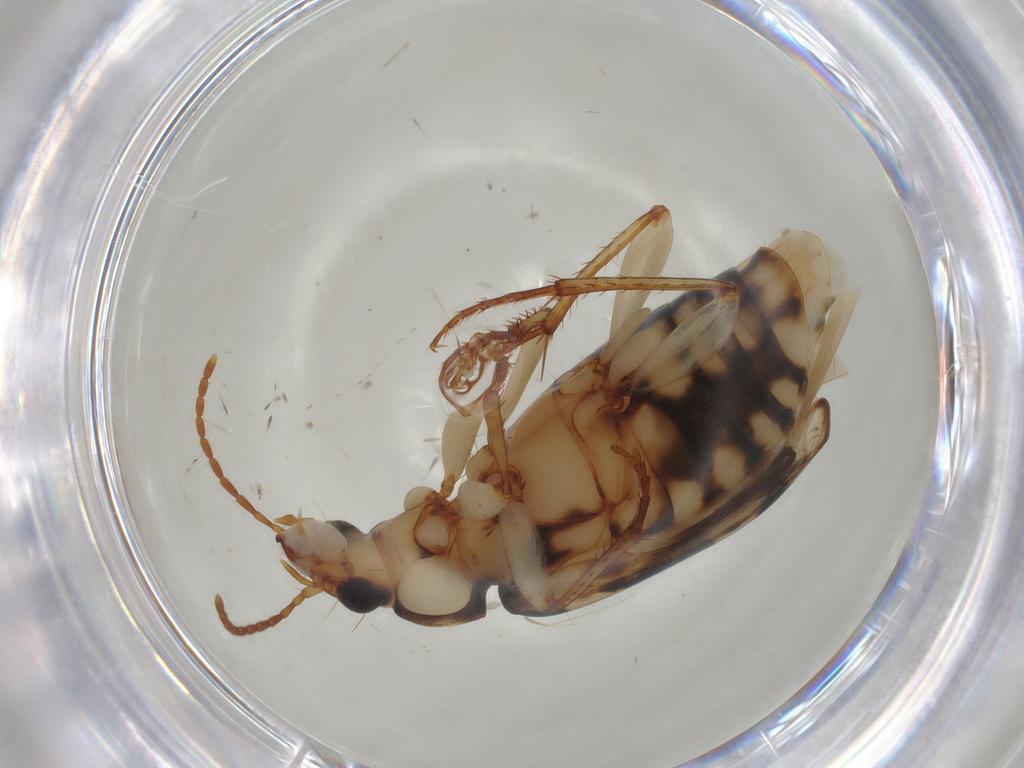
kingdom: Animalia
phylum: Arthropoda
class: Insecta
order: Coleoptera
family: Carabidae
